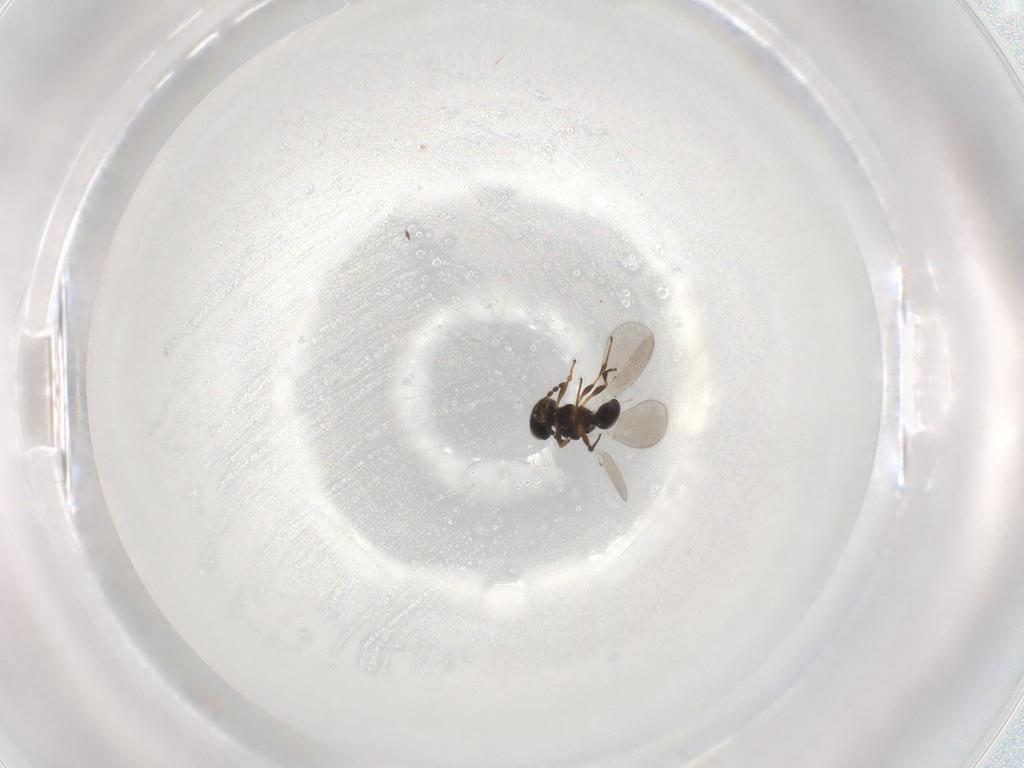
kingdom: Animalia
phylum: Arthropoda
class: Insecta
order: Hymenoptera
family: Platygastridae
